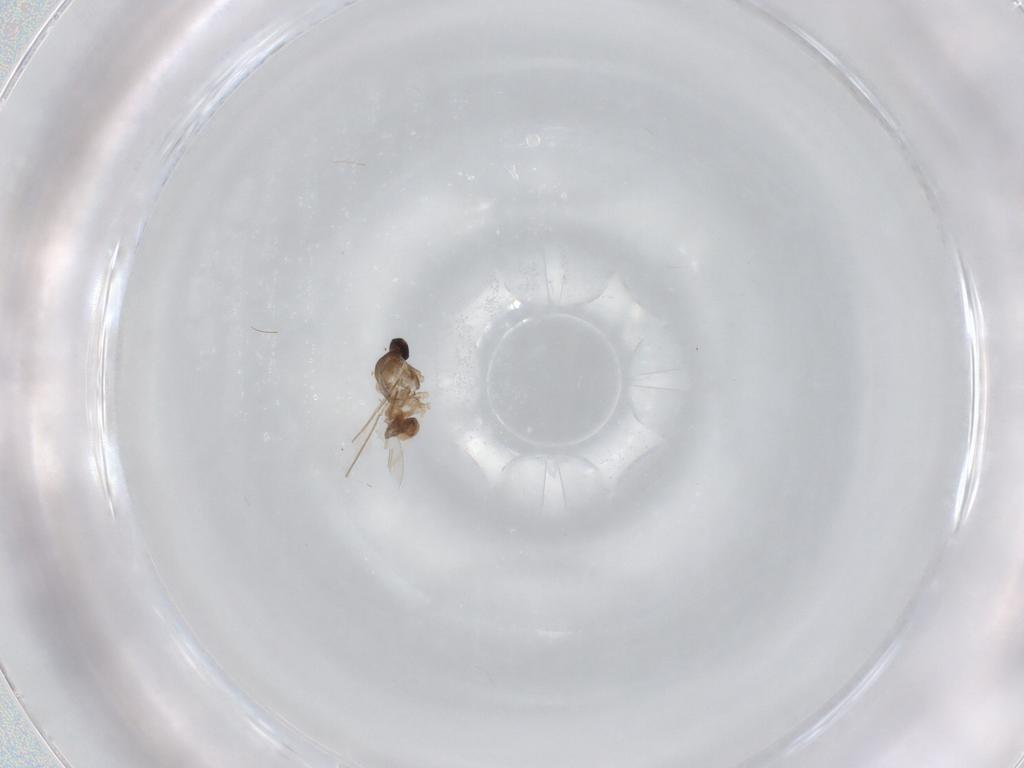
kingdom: Animalia
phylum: Arthropoda
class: Insecta
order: Diptera
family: Cecidomyiidae
